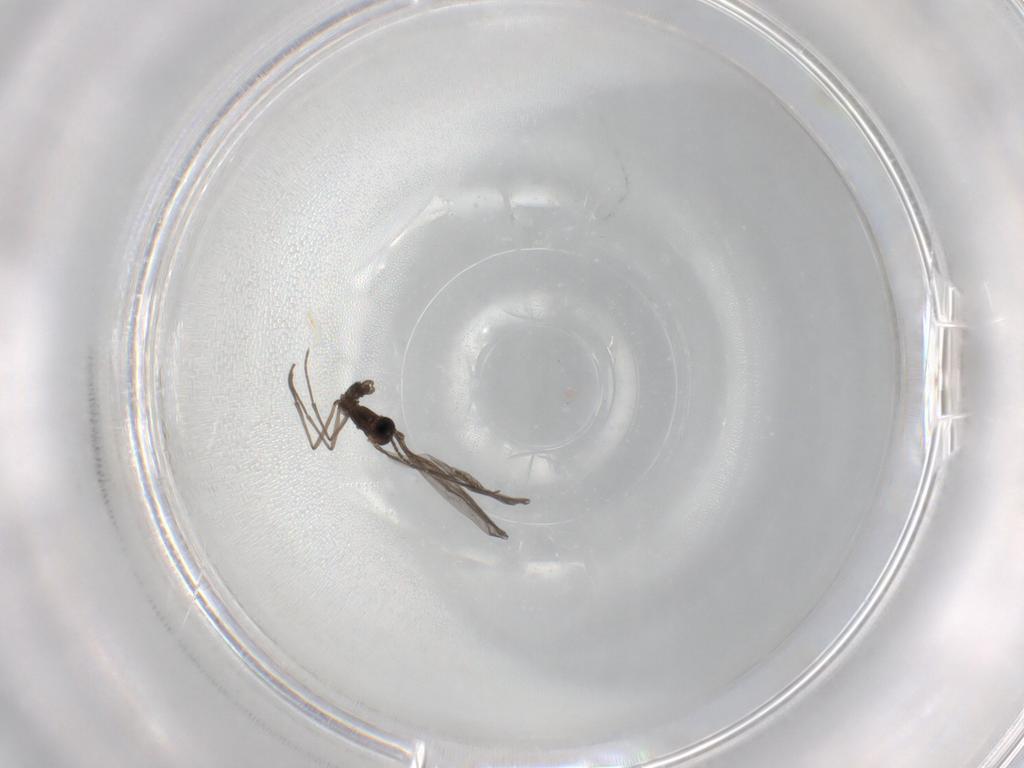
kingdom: Animalia
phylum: Arthropoda
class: Insecta
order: Diptera
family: Sciaridae
